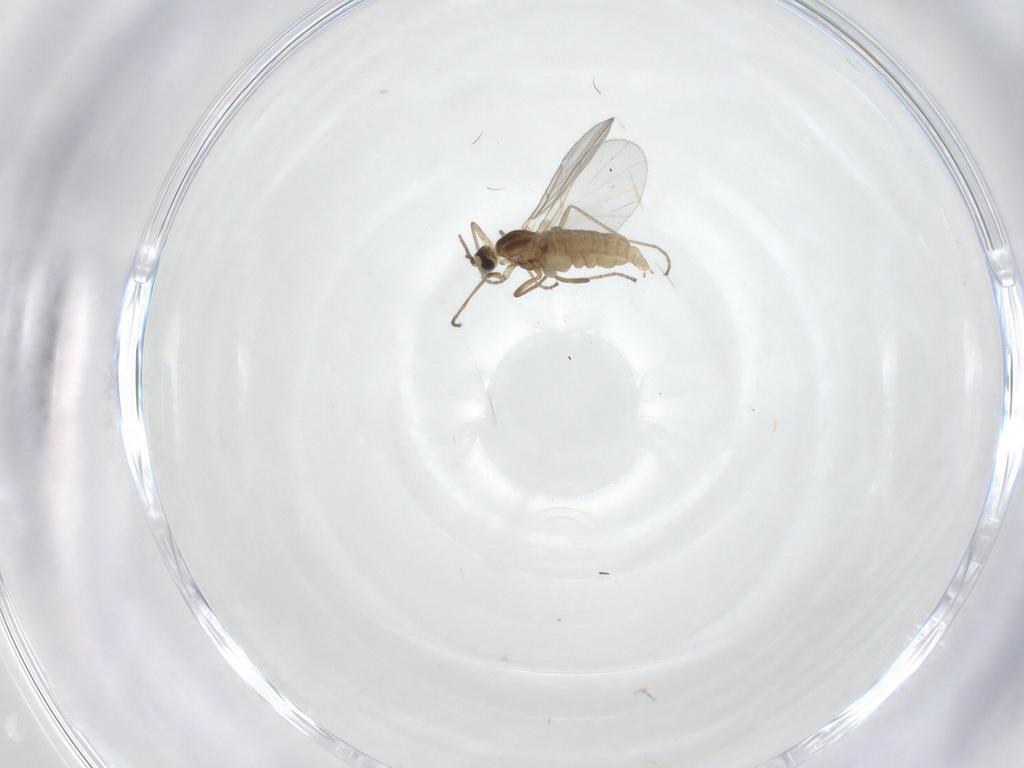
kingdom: Animalia
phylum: Arthropoda
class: Insecta
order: Diptera
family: Cecidomyiidae
